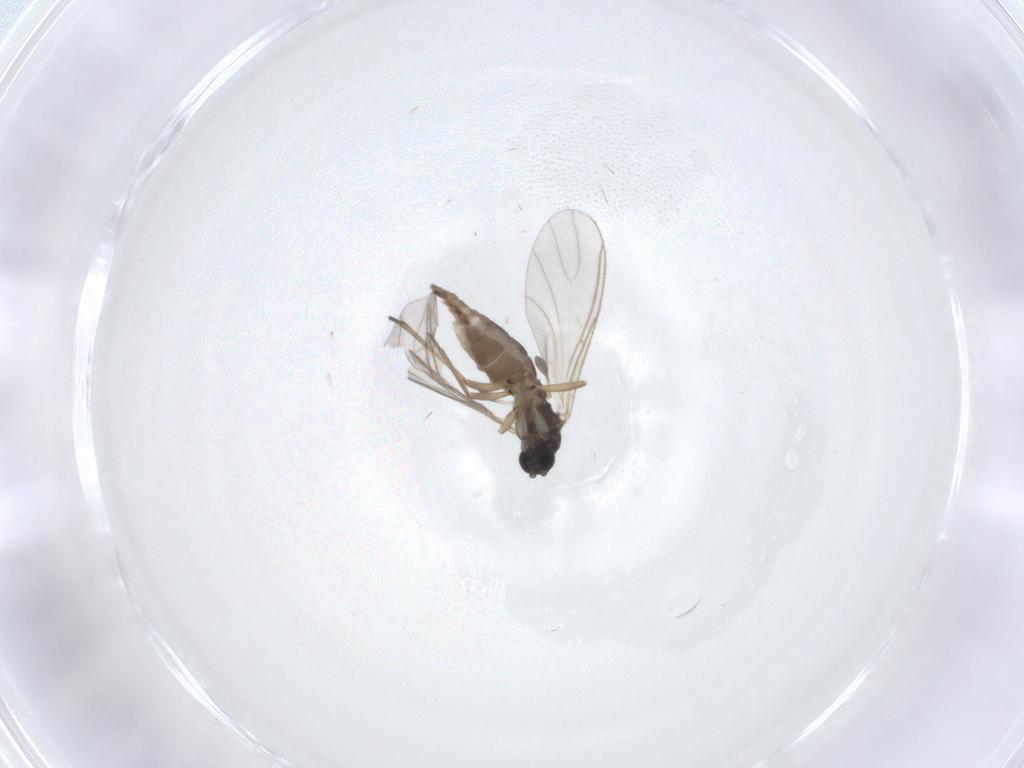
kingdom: Animalia
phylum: Arthropoda
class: Insecta
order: Diptera
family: Sciaridae
